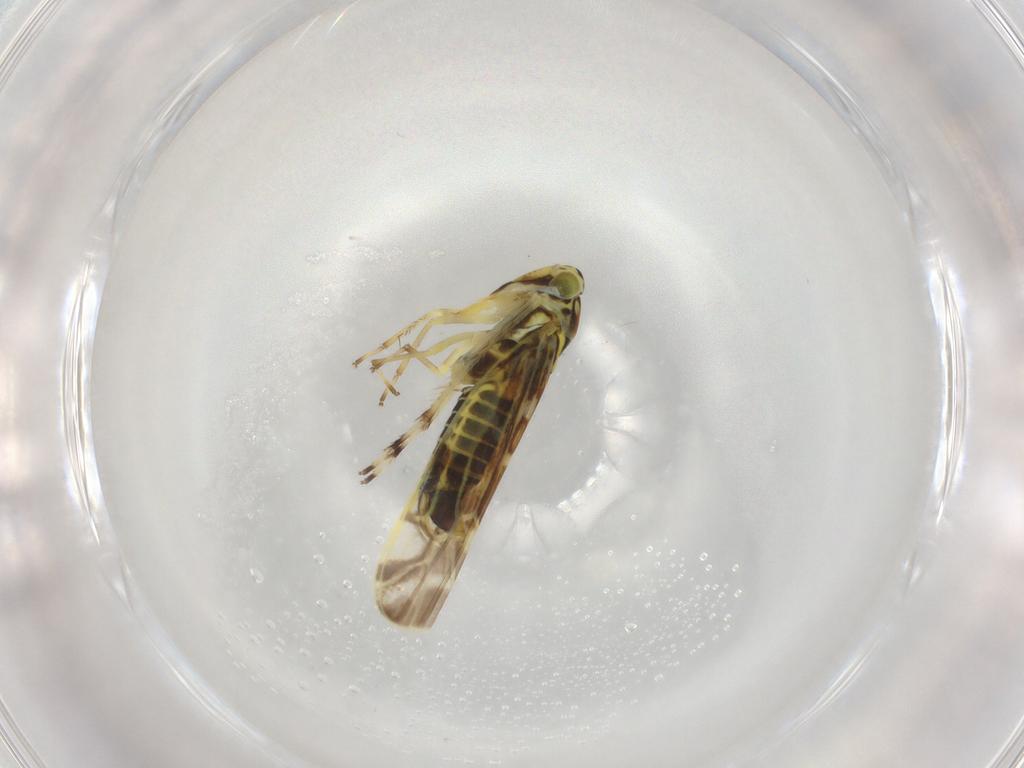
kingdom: Animalia
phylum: Arthropoda
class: Insecta
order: Hemiptera
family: Cicadellidae
